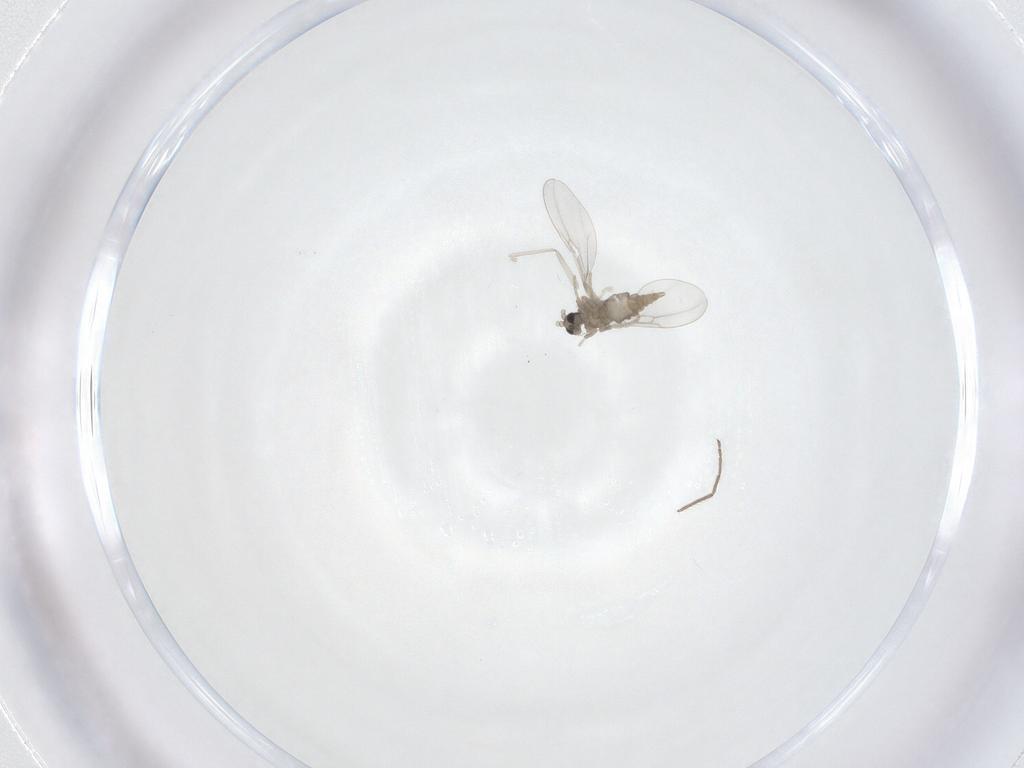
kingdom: Animalia
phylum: Arthropoda
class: Insecta
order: Diptera
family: Cecidomyiidae
